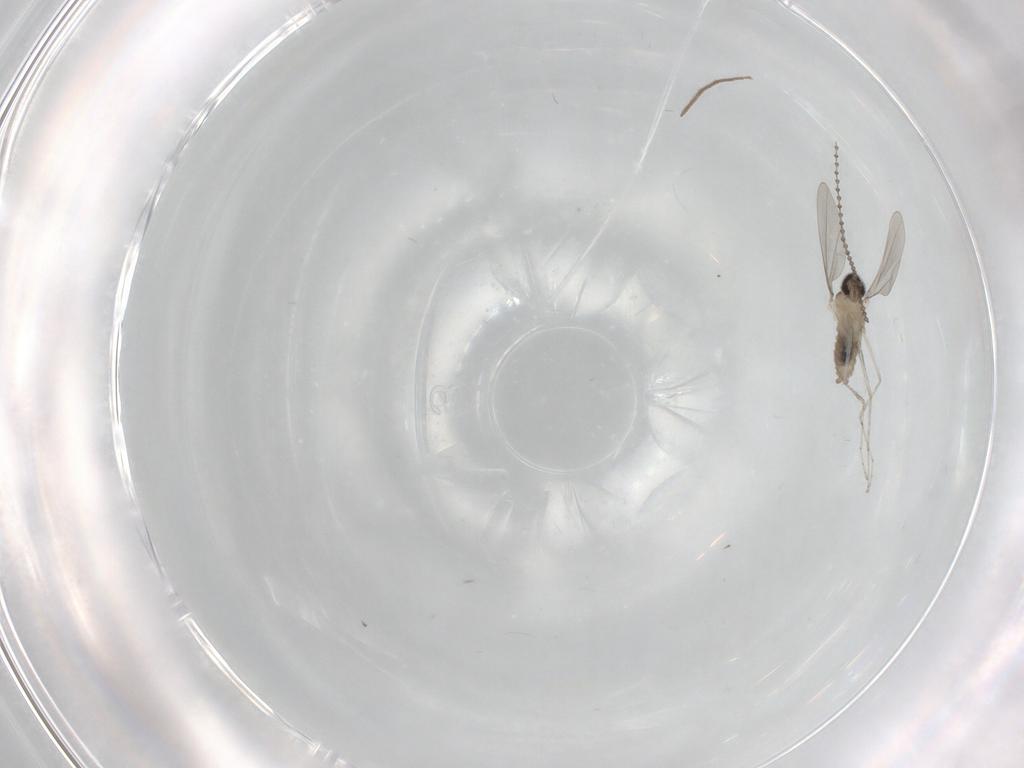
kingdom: Animalia
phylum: Arthropoda
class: Insecta
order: Diptera
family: Cecidomyiidae
